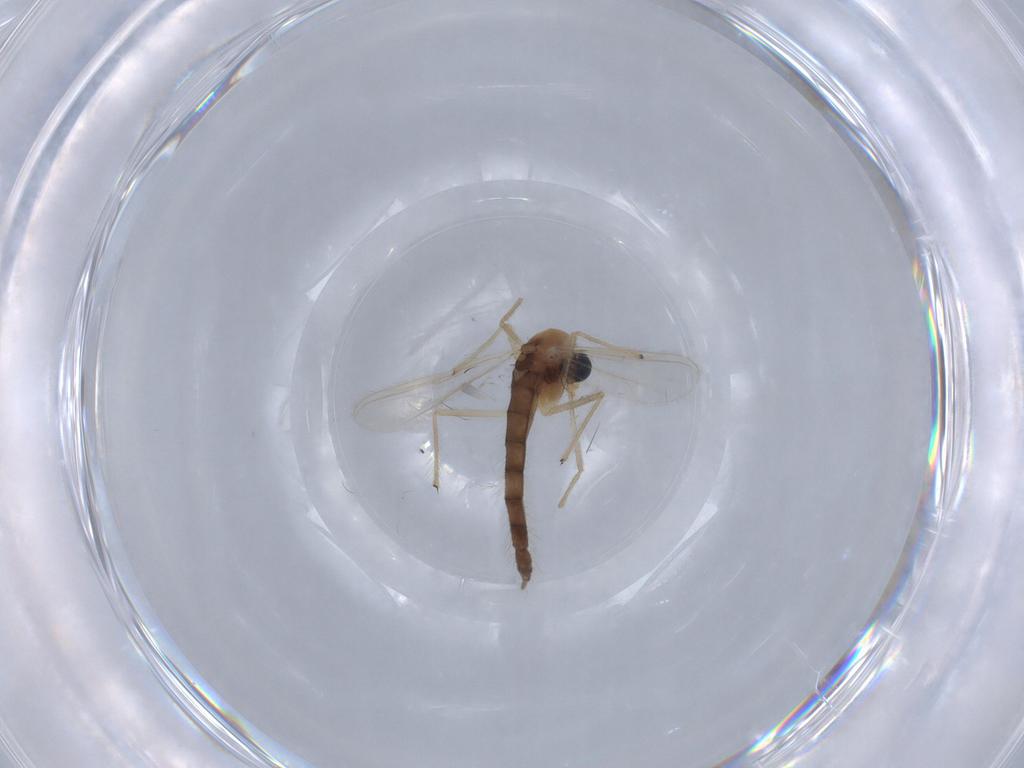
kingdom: Animalia
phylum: Arthropoda
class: Insecta
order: Diptera
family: Chironomidae
